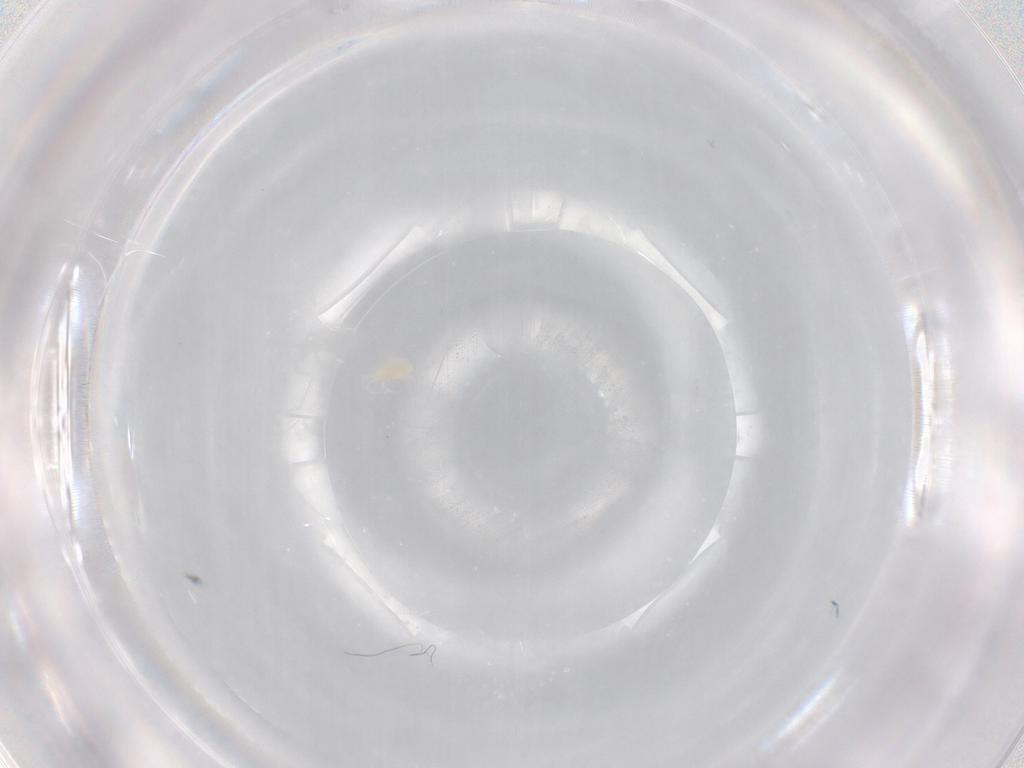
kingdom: Animalia
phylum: Arthropoda
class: Arachnida
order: Trombidiformes
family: Rhagidiidae
